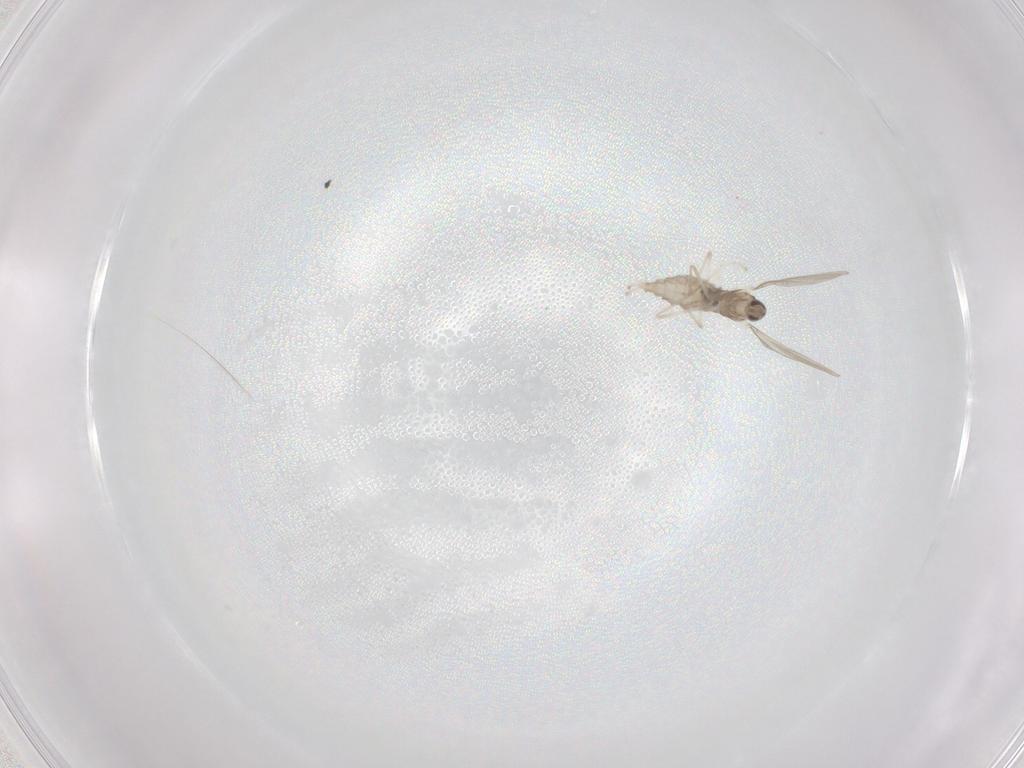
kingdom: Animalia
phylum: Arthropoda
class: Insecta
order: Diptera
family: Cecidomyiidae
